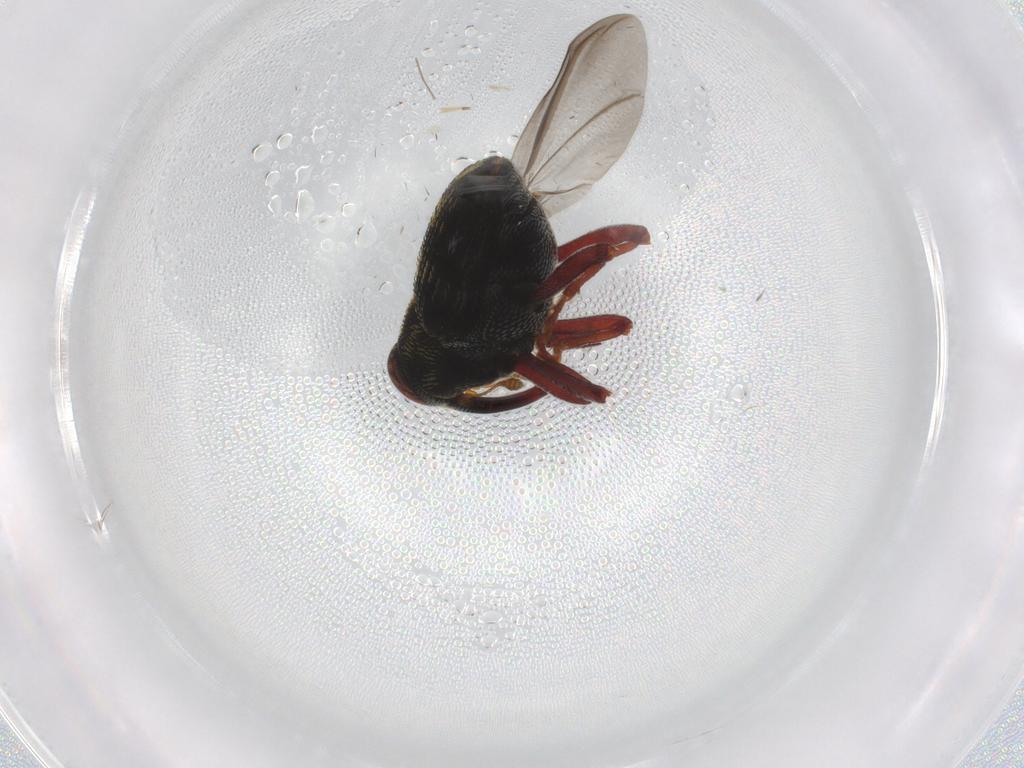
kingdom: Animalia
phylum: Arthropoda
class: Insecta
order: Coleoptera
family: Curculionidae
